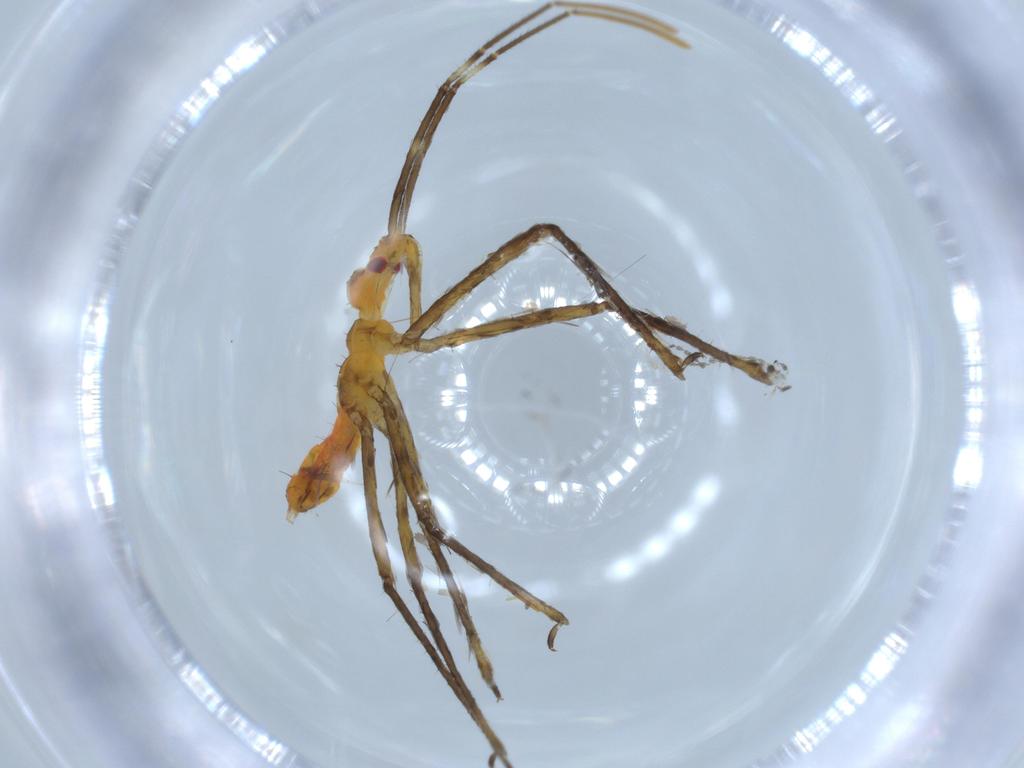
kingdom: Animalia
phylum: Arthropoda
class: Insecta
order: Hemiptera
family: Reduviidae
